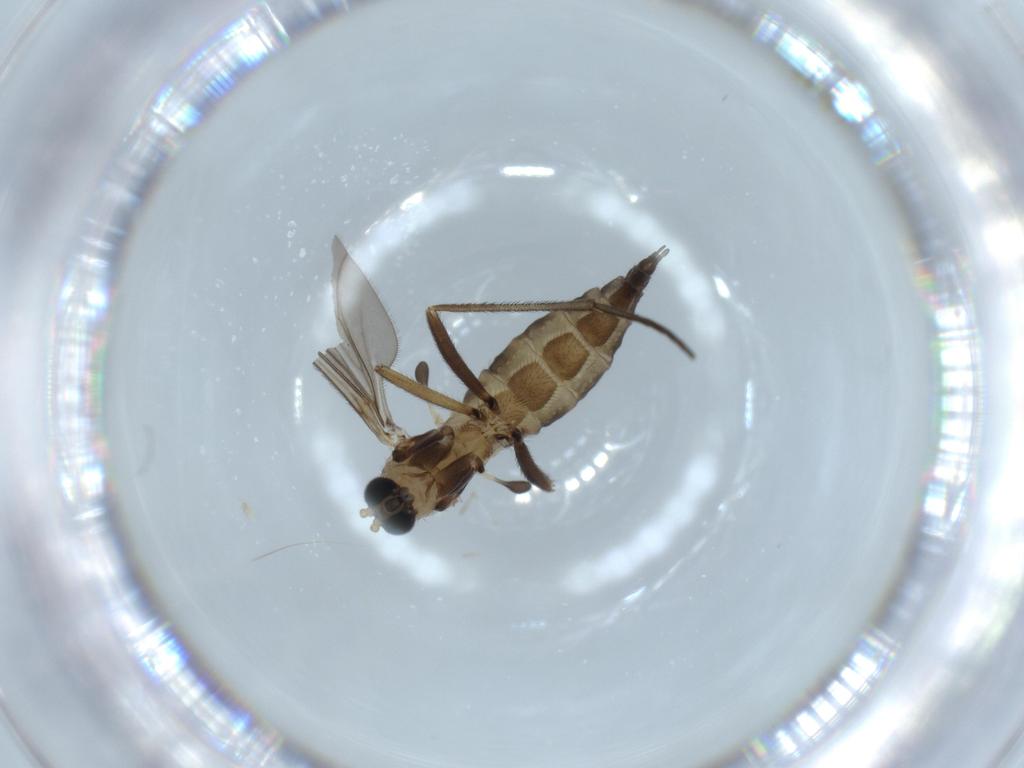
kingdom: Animalia
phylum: Arthropoda
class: Insecta
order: Diptera
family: Sciaridae
